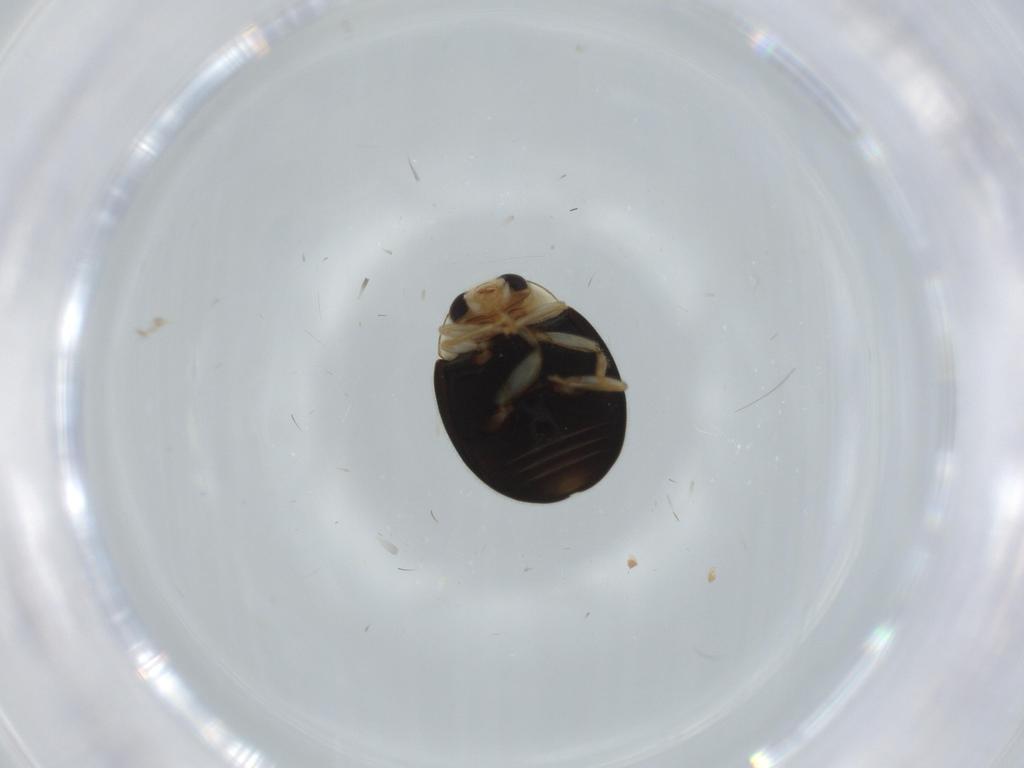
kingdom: Animalia
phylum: Arthropoda
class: Insecta
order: Coleoptera
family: Coccinellidae
